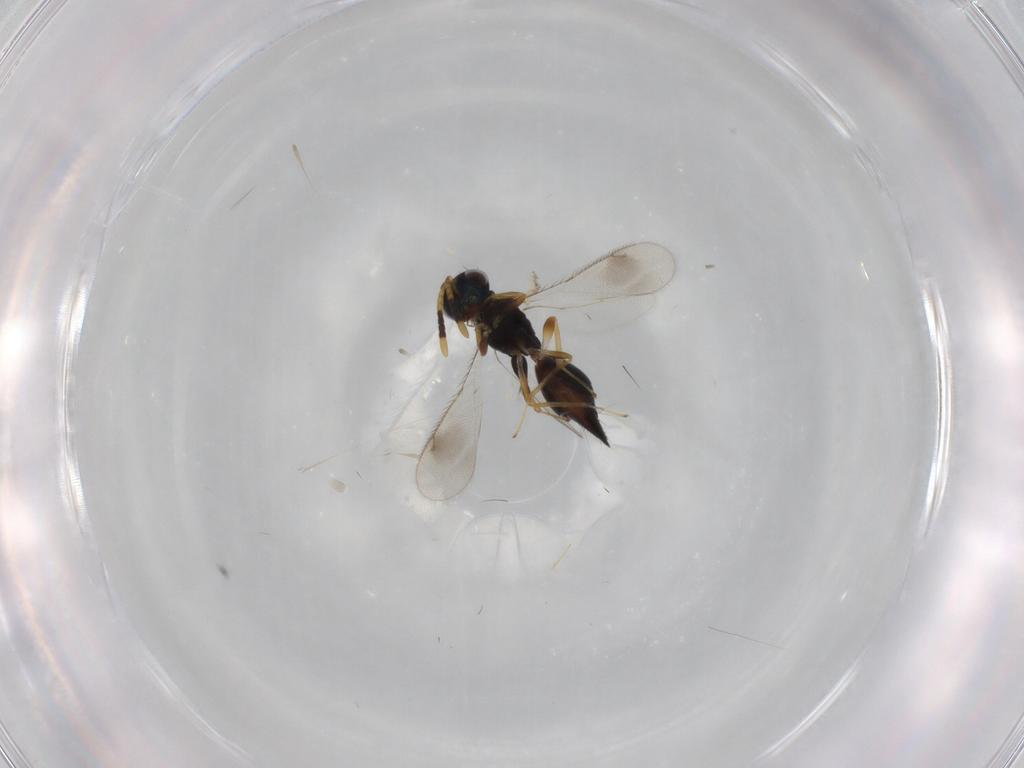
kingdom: Animalia
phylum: Arthropoda
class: Insecta
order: Hymenoptera
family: Diparidae
